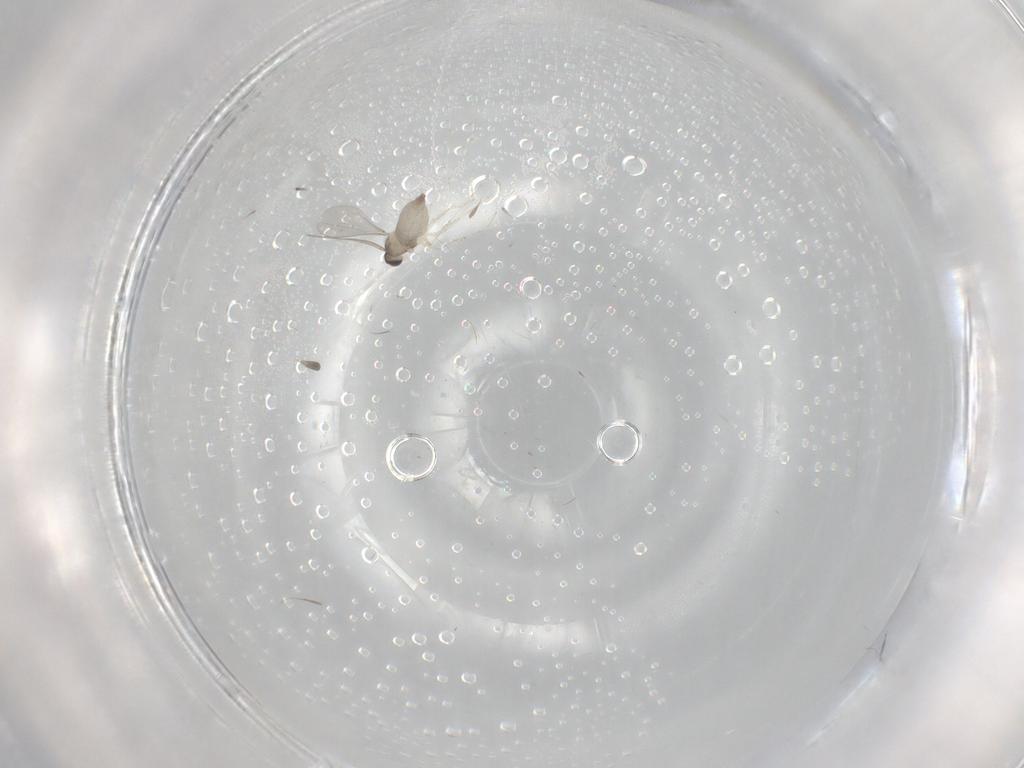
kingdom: Animalia
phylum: Arthropoda
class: Insecta
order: Diptera
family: Cecidomyiidae
